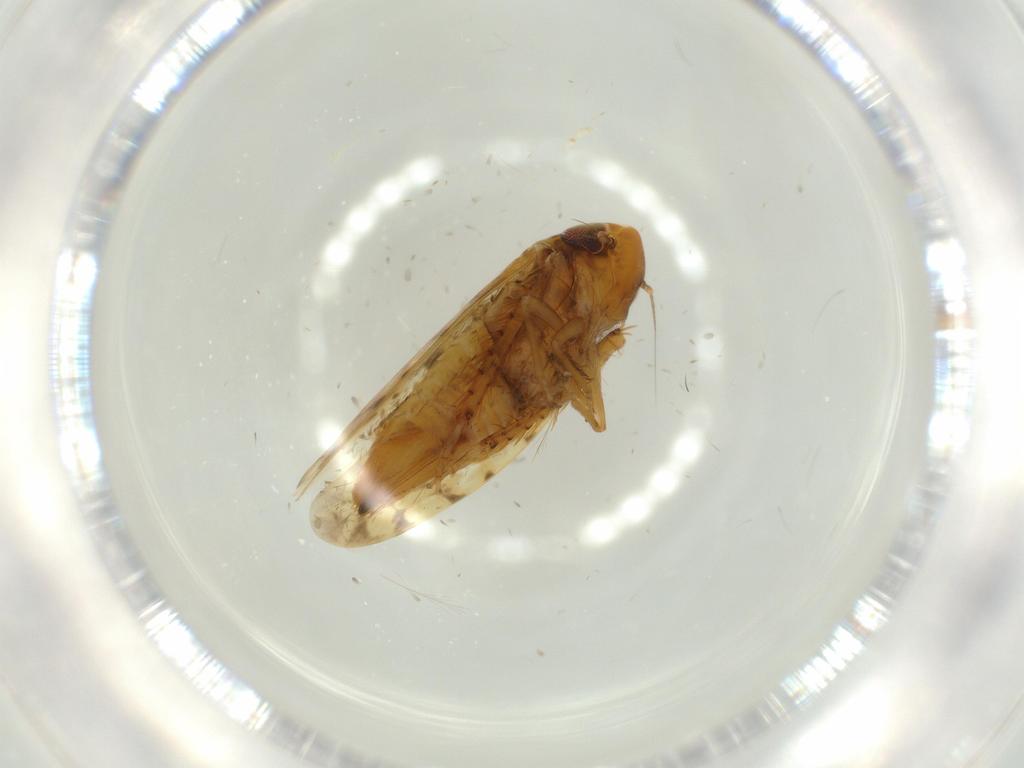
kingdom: Animalia
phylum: Arthropoda
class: Insecta
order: Hemiptera
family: Cicadellidae
